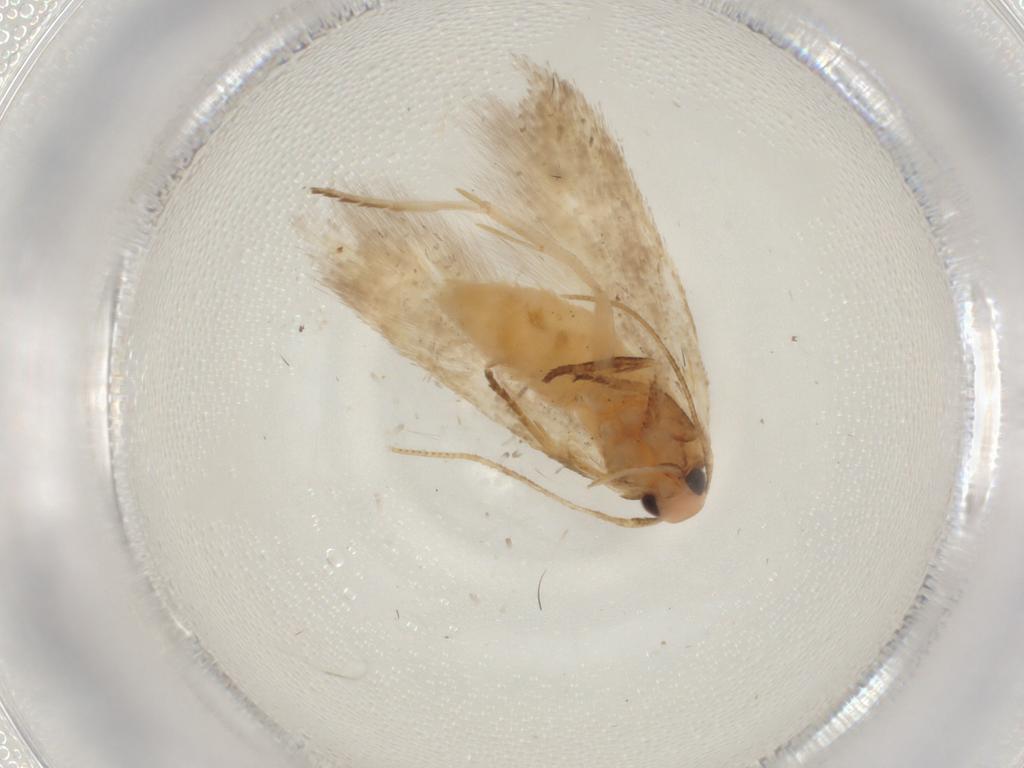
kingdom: Animalia
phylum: Arthropoda
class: Insecta
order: Lepidoptera
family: Cosmopterigidae
